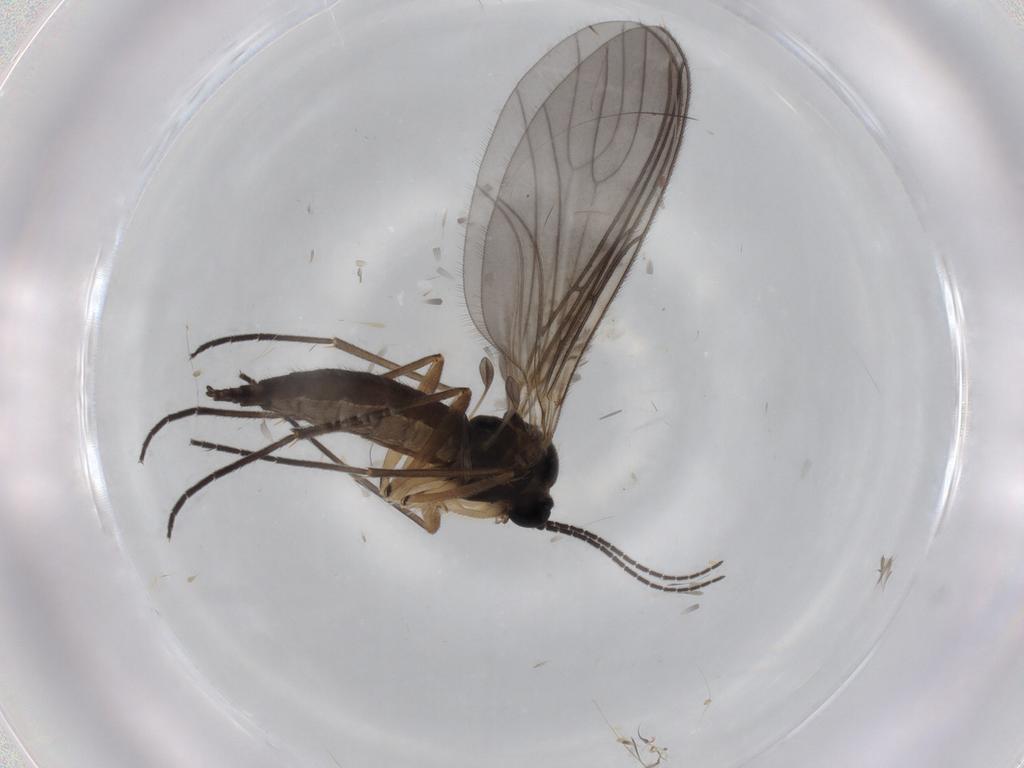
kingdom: Animalia
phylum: Arthropoda
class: Insecta
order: Diptera
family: Sciaridae
